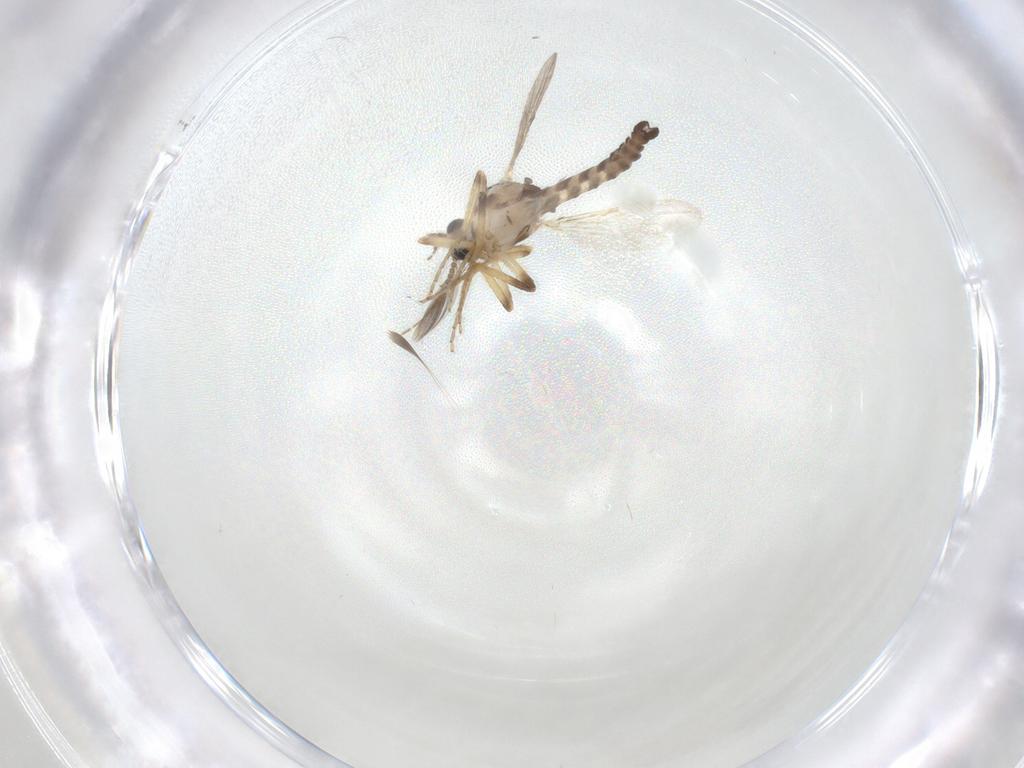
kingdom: Animalia
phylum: Arthropoda
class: Insecta
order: Diptera
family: Ceratopogonidae
